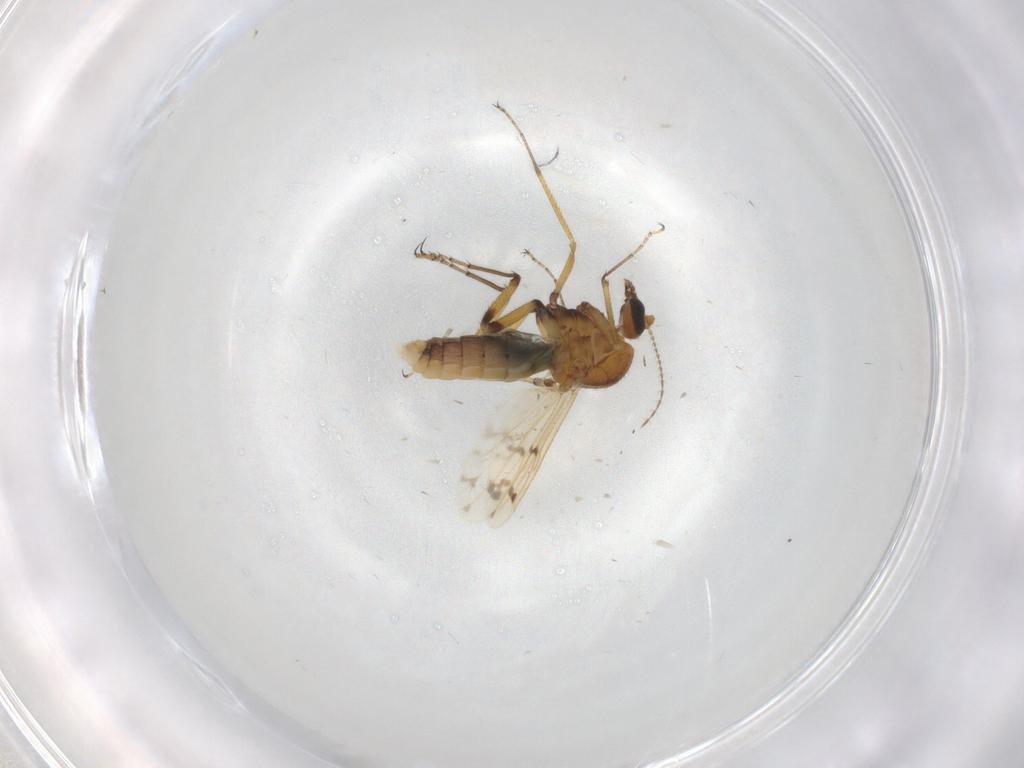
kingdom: Animalia
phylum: Arthropoda
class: Insecta
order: Diptera
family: Ceratopogonidae
